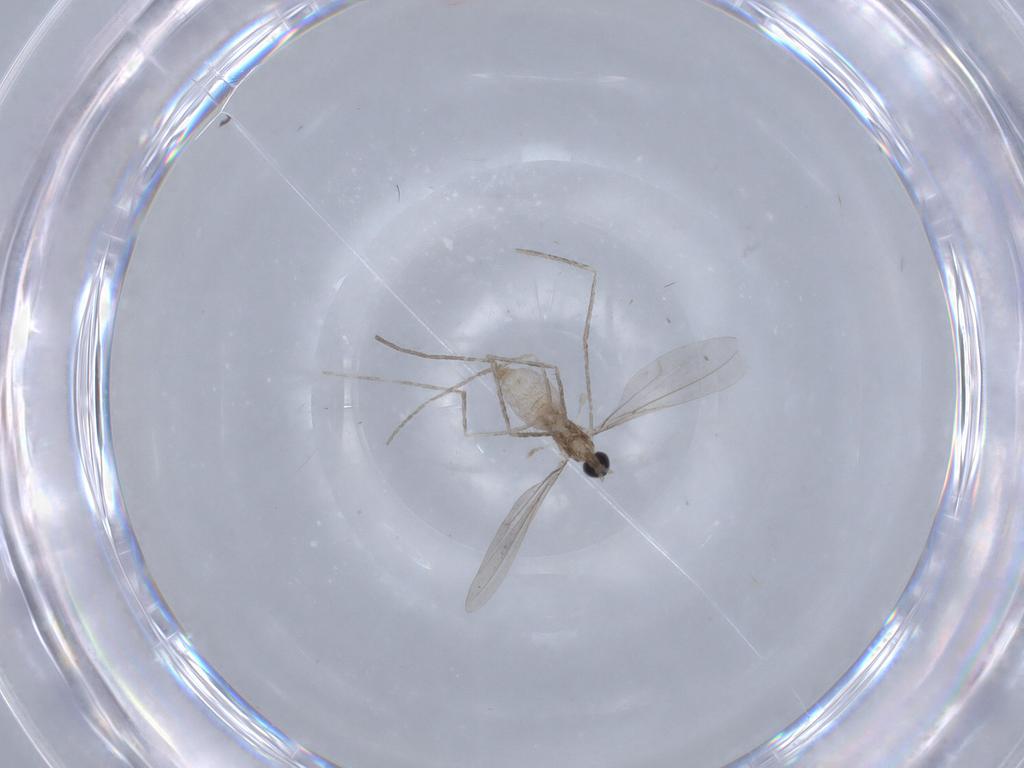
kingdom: Animalia
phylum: Arthropoda
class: Insecta
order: Diptera
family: Cecidomyiidae
